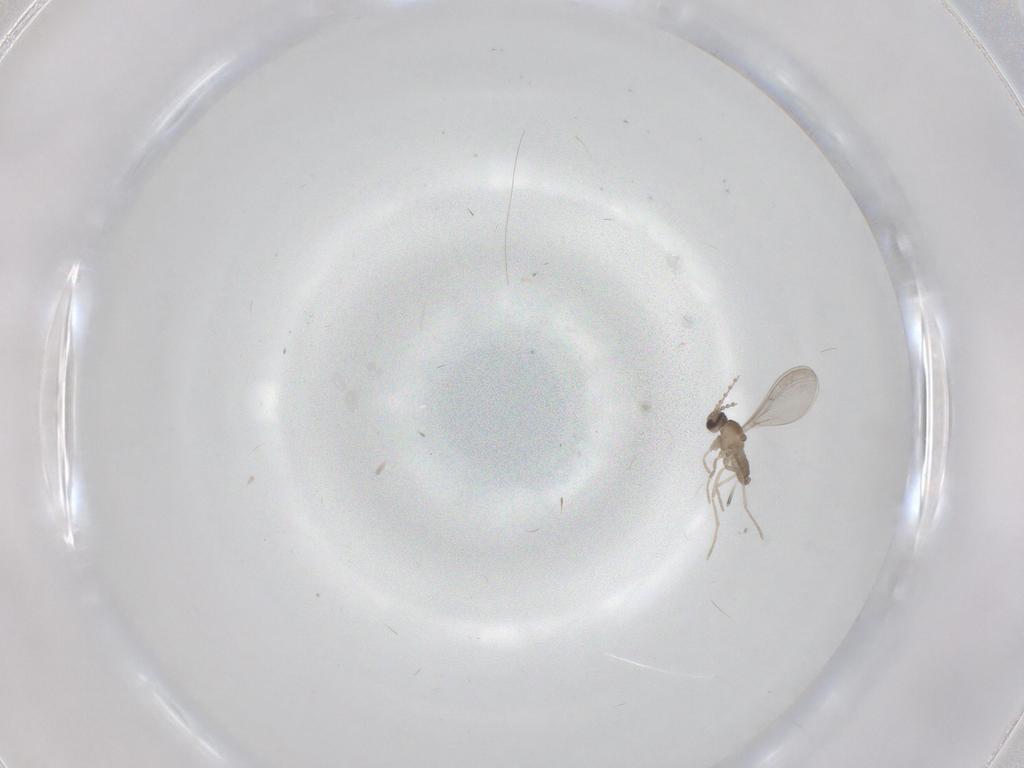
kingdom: Animalia
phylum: Arthropoda
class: Insecta
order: Diptera
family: Cecidomyiidae
